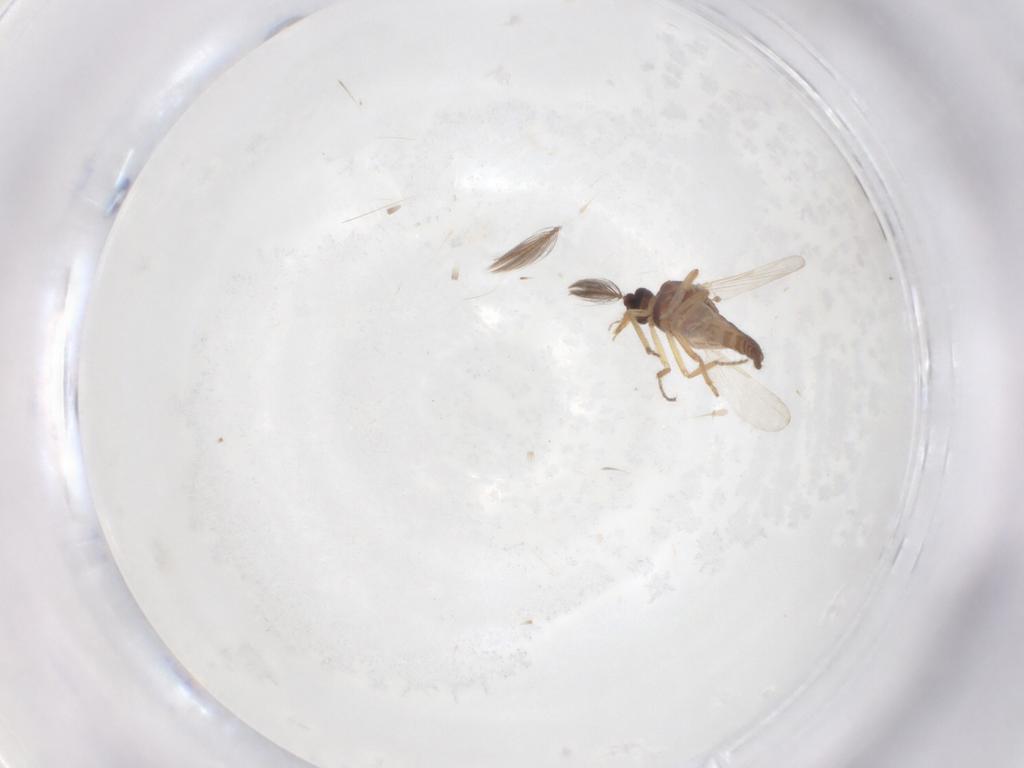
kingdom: Animalia
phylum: Arthropoda
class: Insecta
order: Diptera
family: Ceratopogonidae
